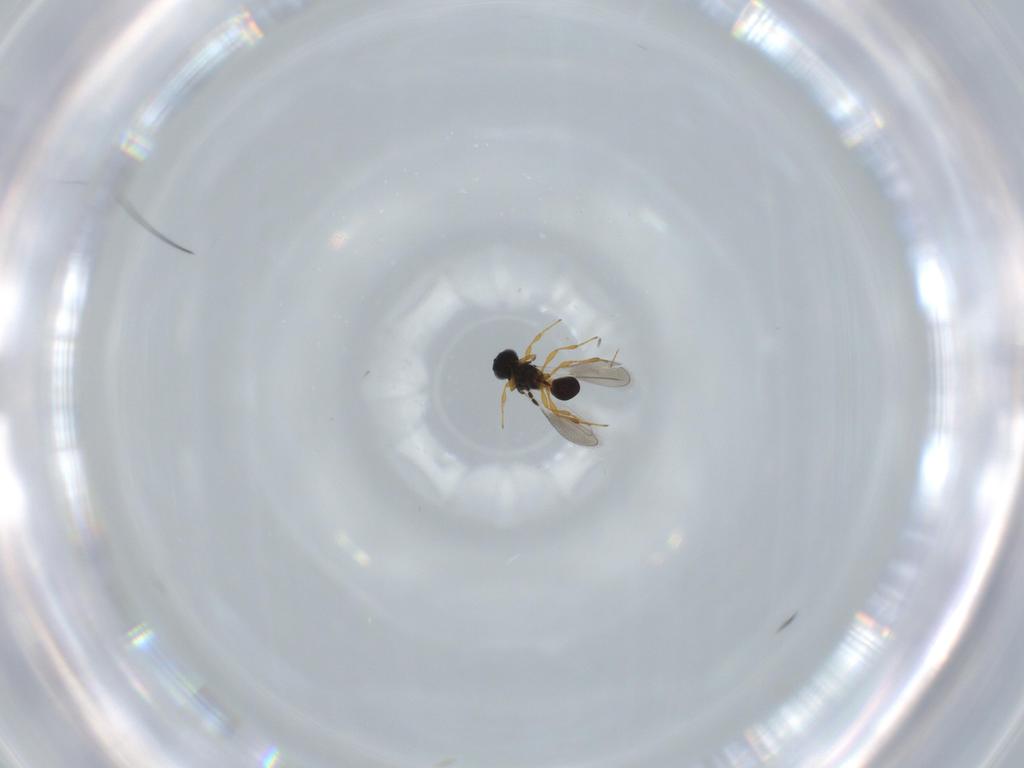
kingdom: Animalia
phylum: Arthropoda
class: Insecta
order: Hymenoptera
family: Platygastridae
